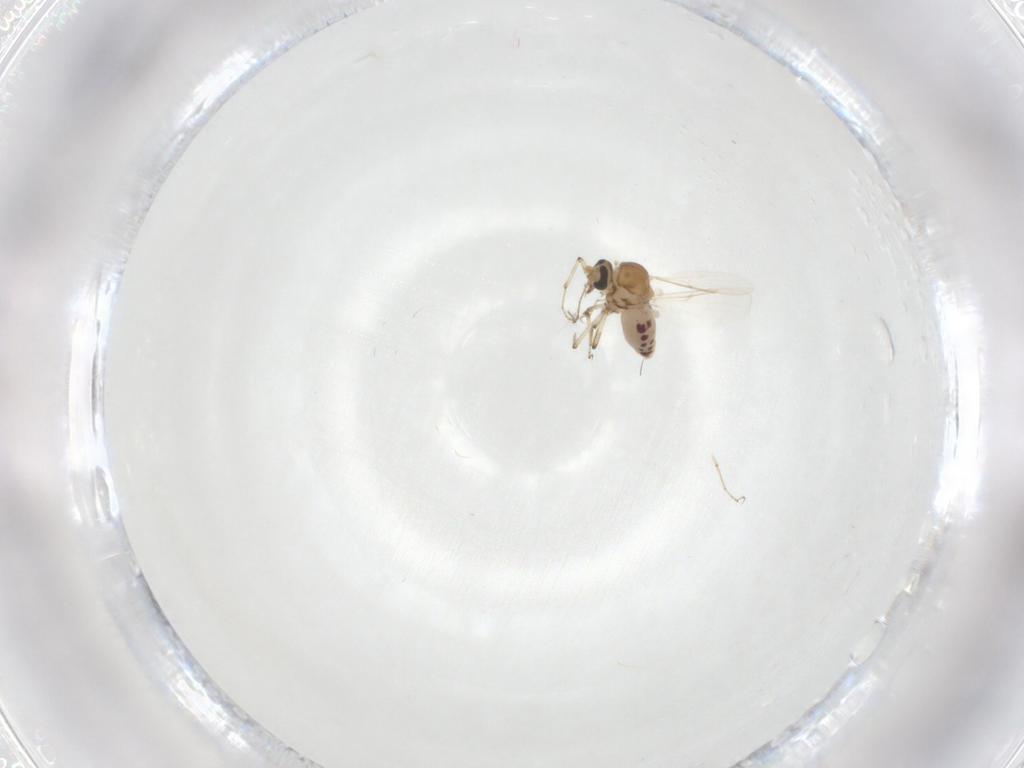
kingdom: Animalia
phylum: Arthropoda
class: Insecta
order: Diptera
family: Ceratopogonidae
